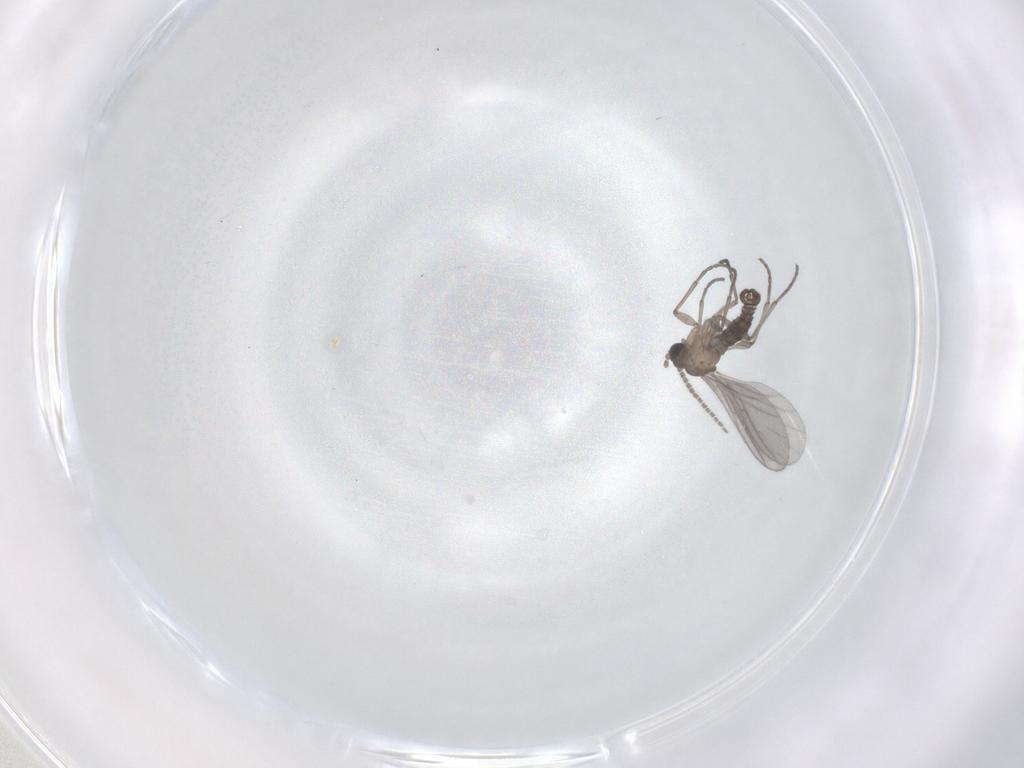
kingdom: Animalia
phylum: Arthropoda
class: Insecta
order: Diptera
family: Sciaridae
